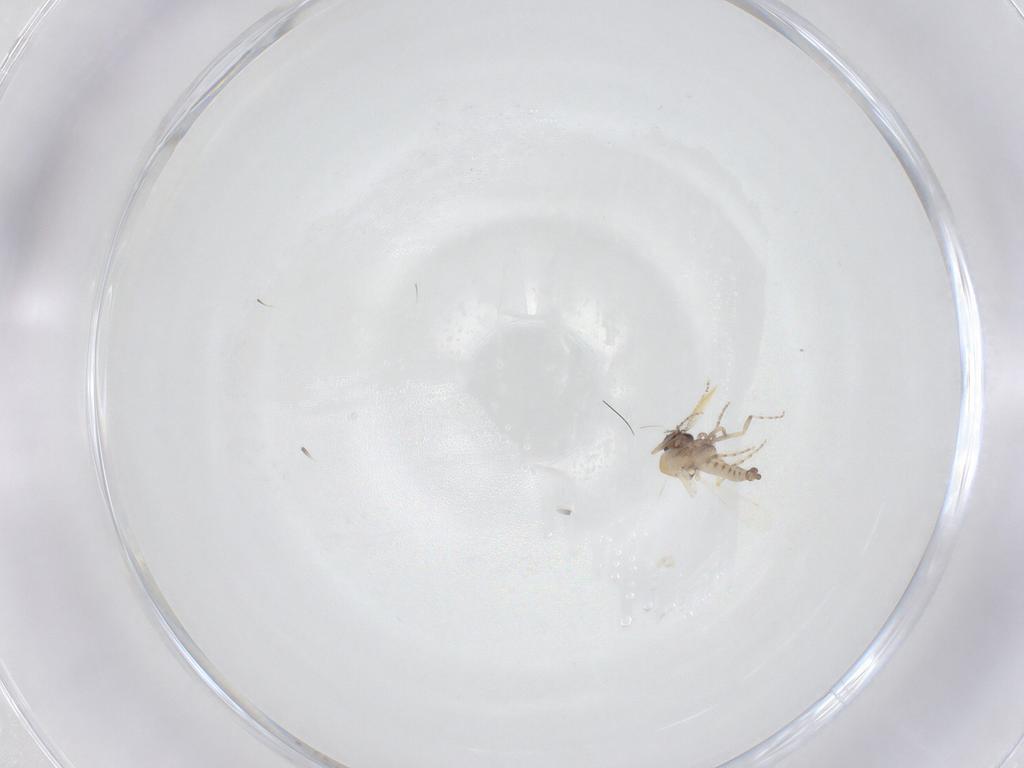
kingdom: Animalia
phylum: Arthropoda
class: Insecta
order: Diptera
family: Ceratopogonidae
